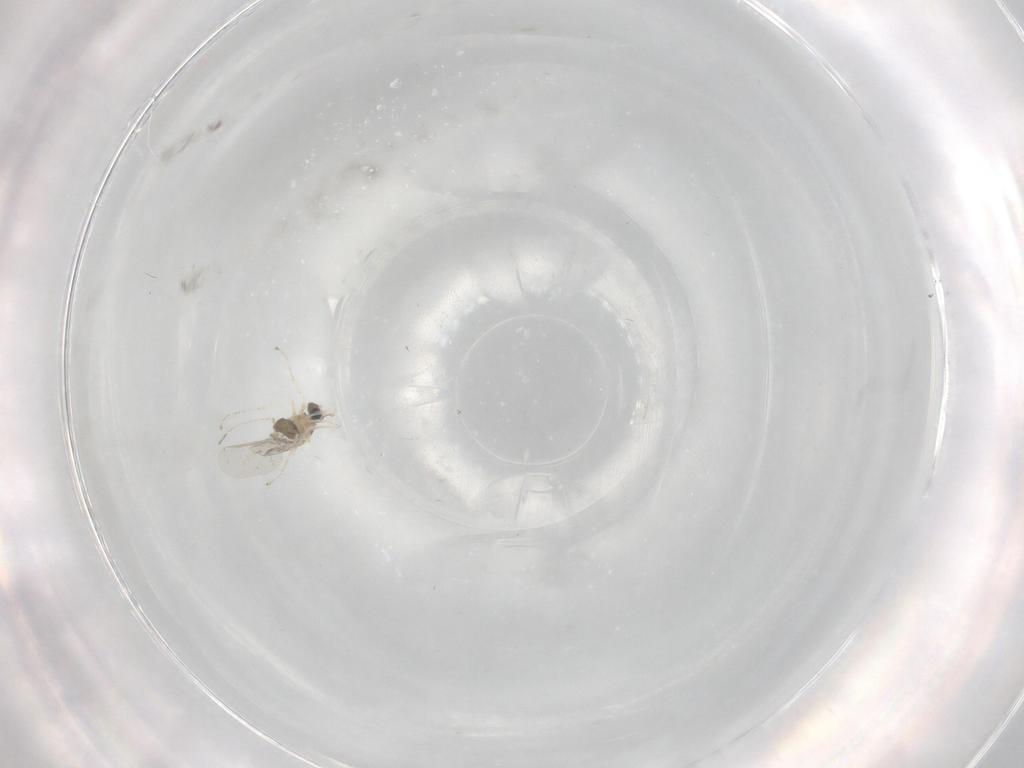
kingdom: Animalia
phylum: Arthropoda
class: Insecta
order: Diptera
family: Cecidomyiidae
